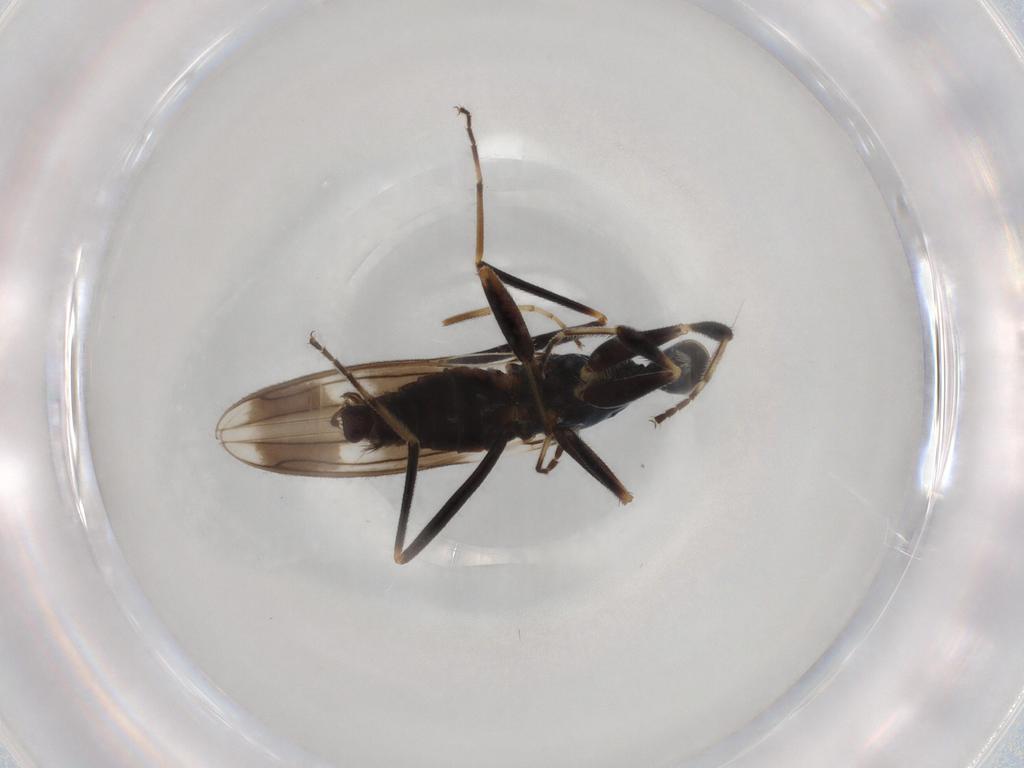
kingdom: Animalia
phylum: Arthropoda
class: Insecta
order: Diptera
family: Hybotidae
